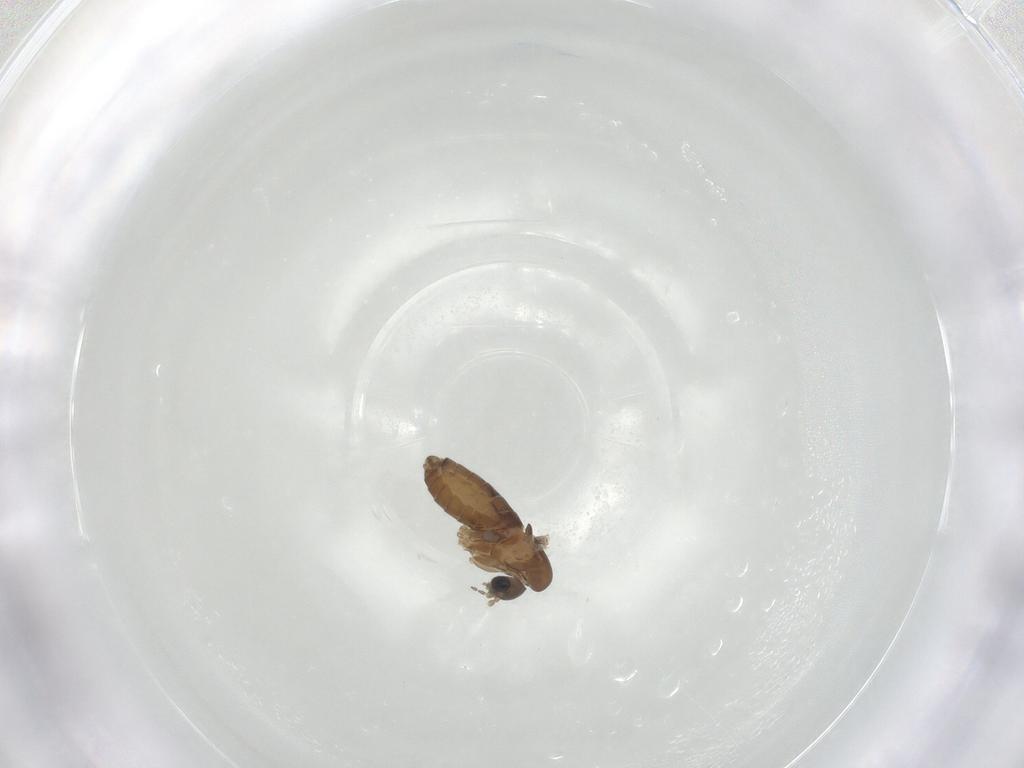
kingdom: Animalia
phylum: Arthropoda
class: Insecta
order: Diptera
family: Psychodidae
